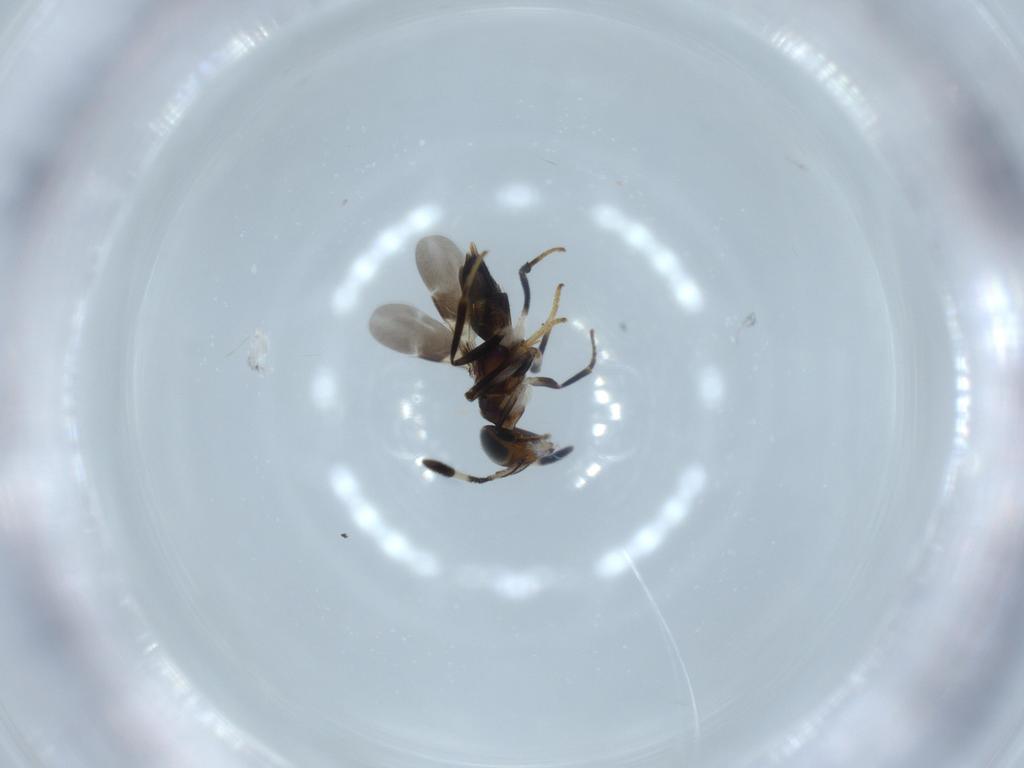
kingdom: Animalia
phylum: Arthropoda
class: Insecta
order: Hymenoptera
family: Encyrtidae
